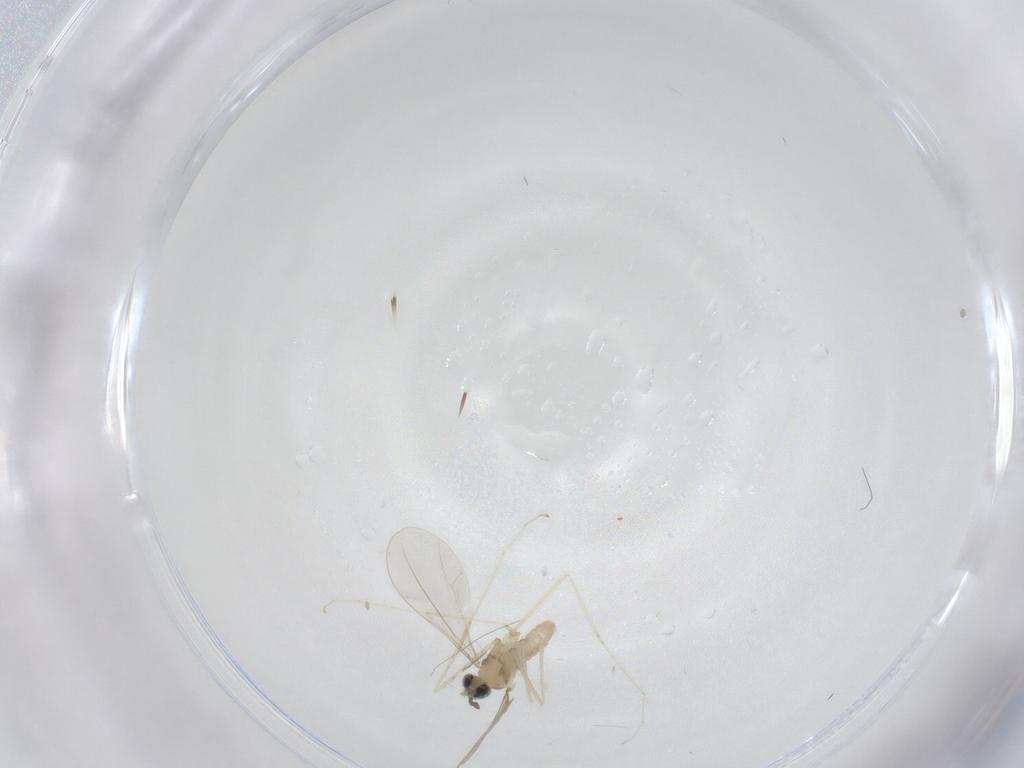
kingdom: Animalia
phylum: Arthropoda
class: Insecta
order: Diptera
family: Cecidomyiidae
